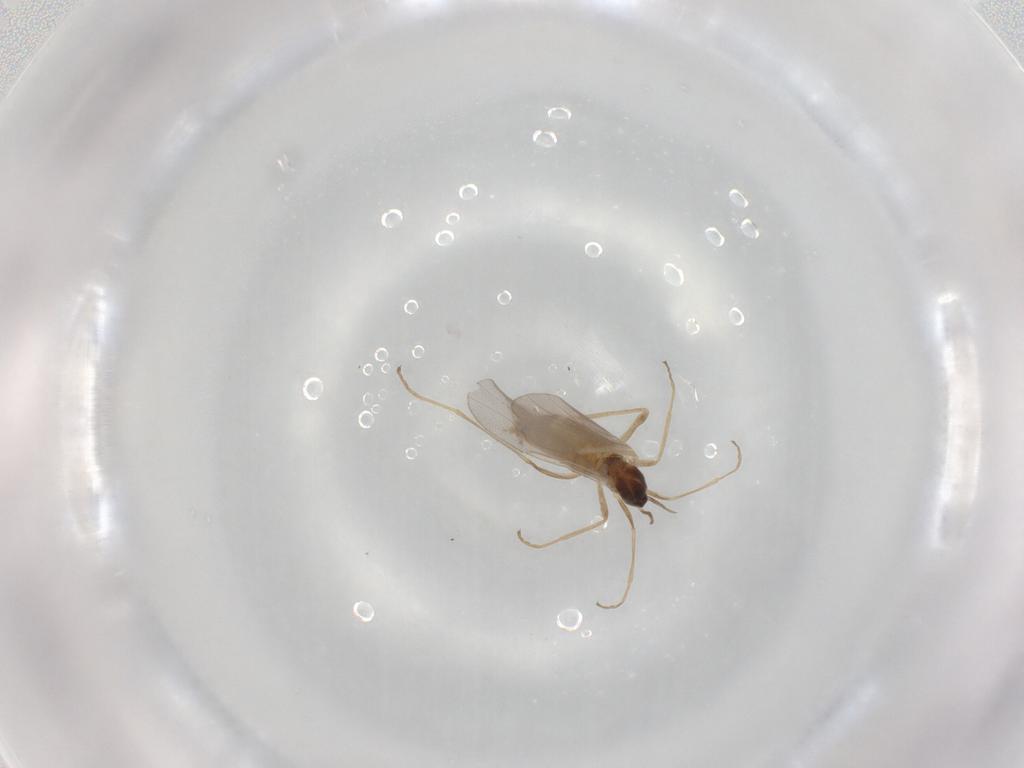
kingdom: Animalia
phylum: Arthropoda
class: Insecta
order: Diptera
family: Cecidomyiidae
